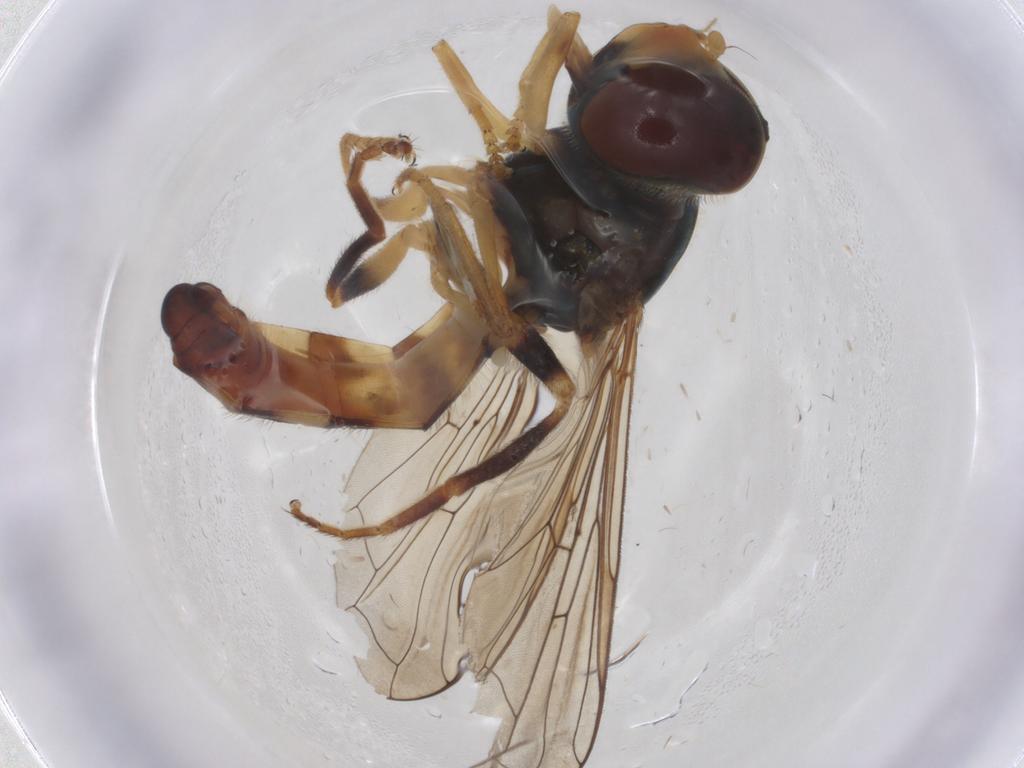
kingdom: Animalia
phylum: Arthropoda
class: Insecta
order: Diptera
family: Syrphidae
